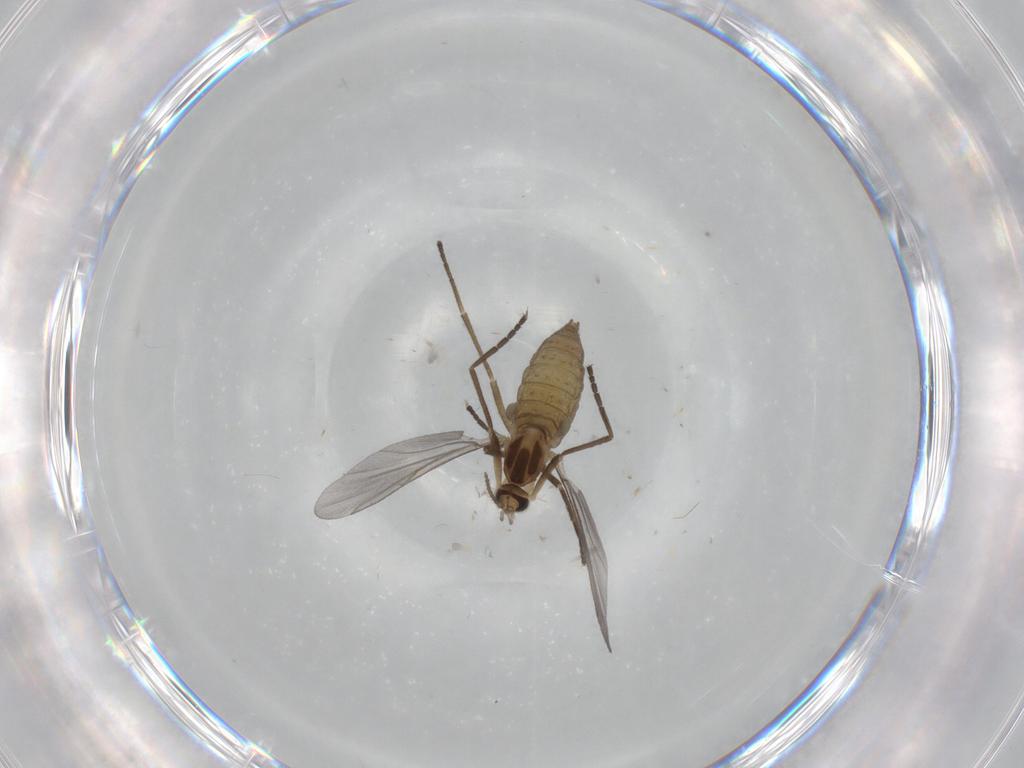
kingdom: Animalia
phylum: Arthropoda
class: Insecta
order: Diptera
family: Cecidomyiidae
